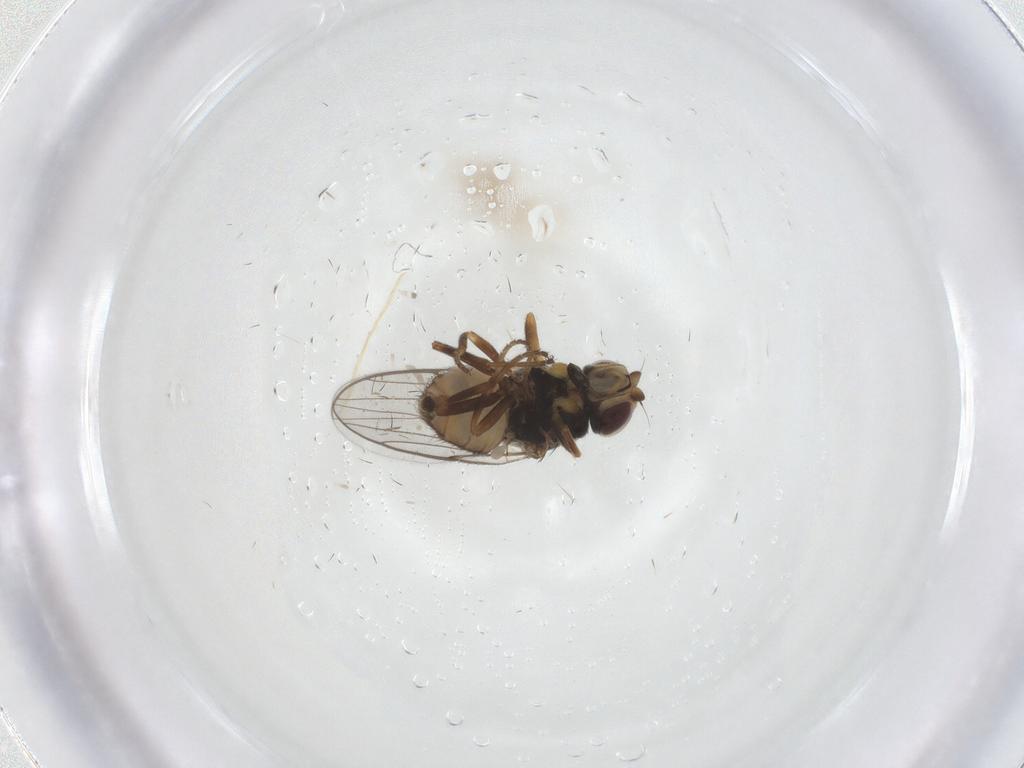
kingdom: Animalia
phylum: Arthropoda
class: Insecta
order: Diptera
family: Chloropidae
